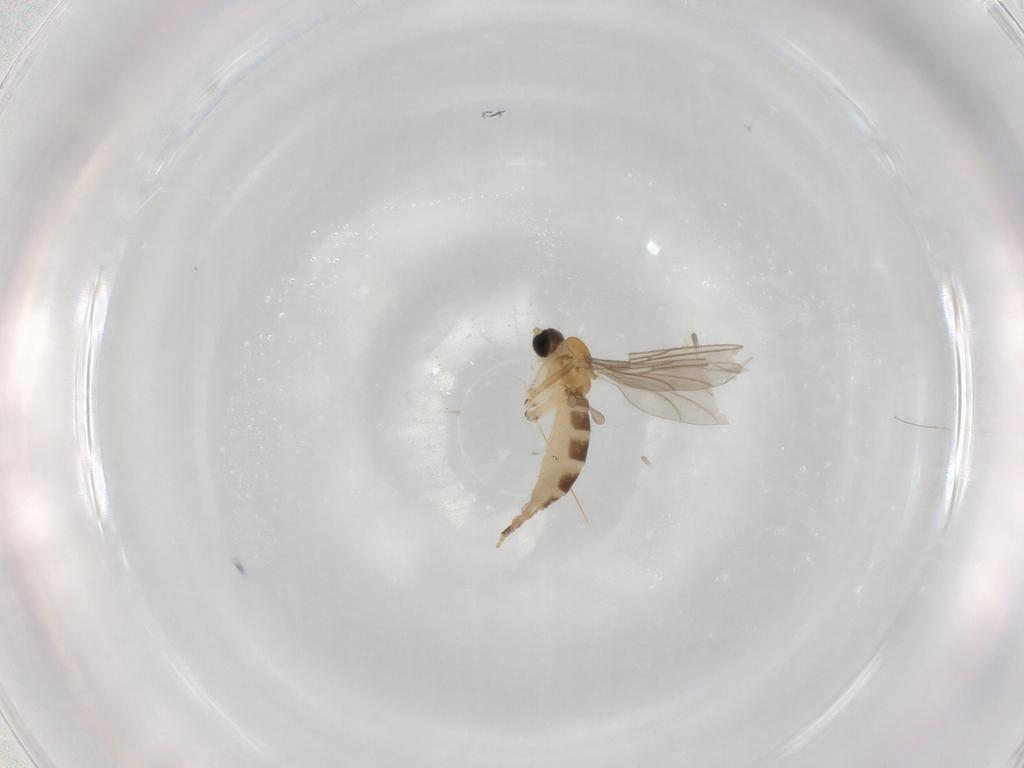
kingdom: Animalia
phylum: Arthropoda
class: Insecta
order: Diptera
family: Sciaridae
